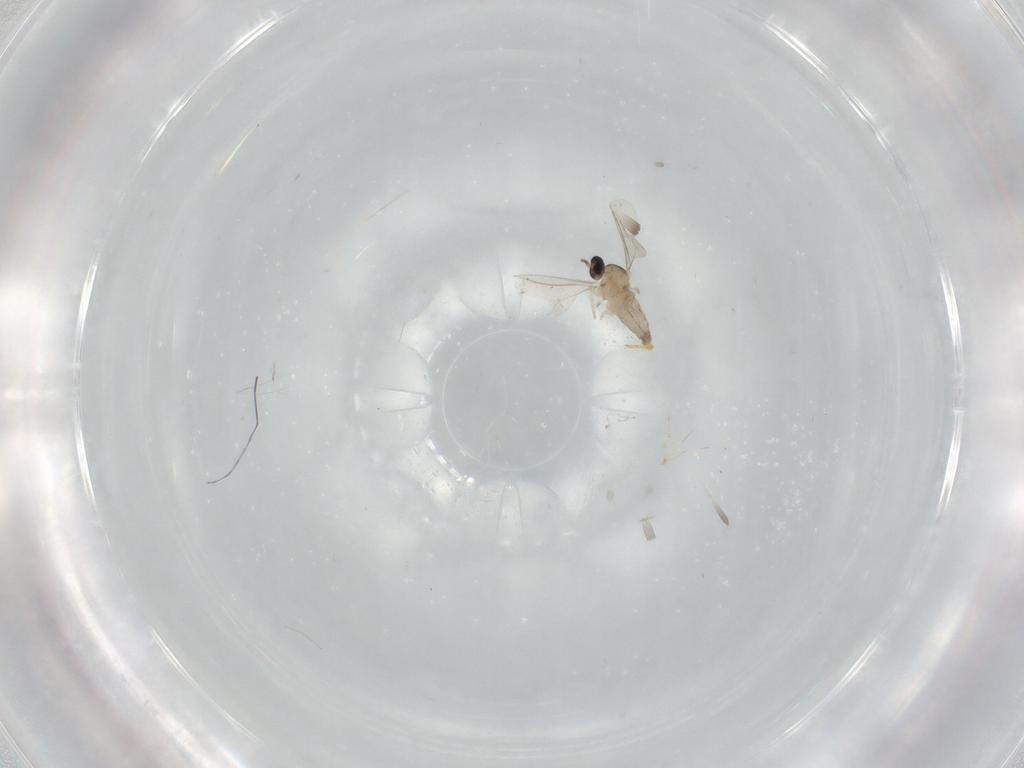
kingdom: Animalia
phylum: Arthropoda
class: Insecta
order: Diptera
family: Cecidomyiidae
